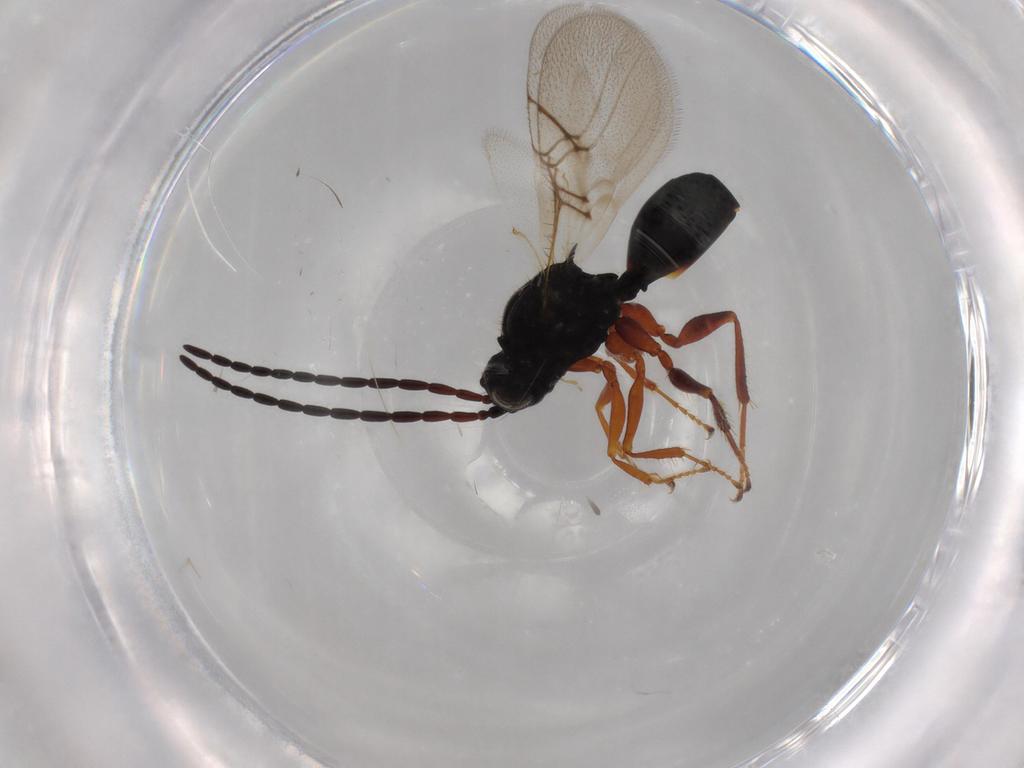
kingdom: Animalia
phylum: Arthropoda
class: Insecta
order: Hymenoptera
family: Figitidae
